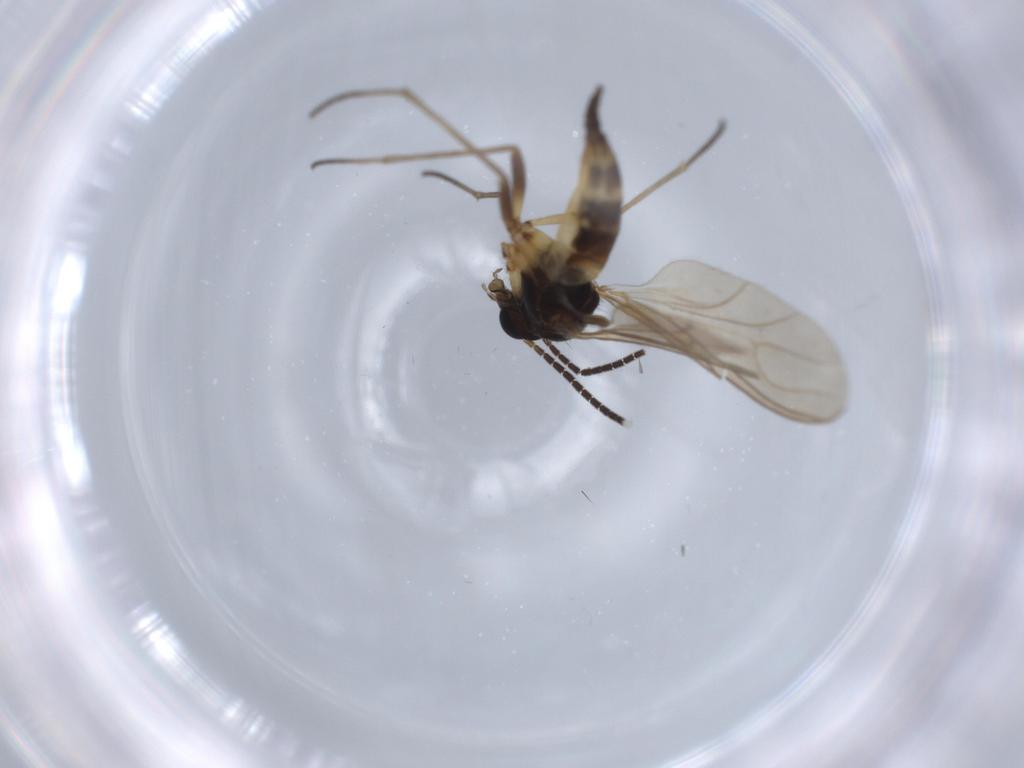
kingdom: Animalia
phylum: Arthropoda
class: Insecta
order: Diptera
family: Sciaridae
